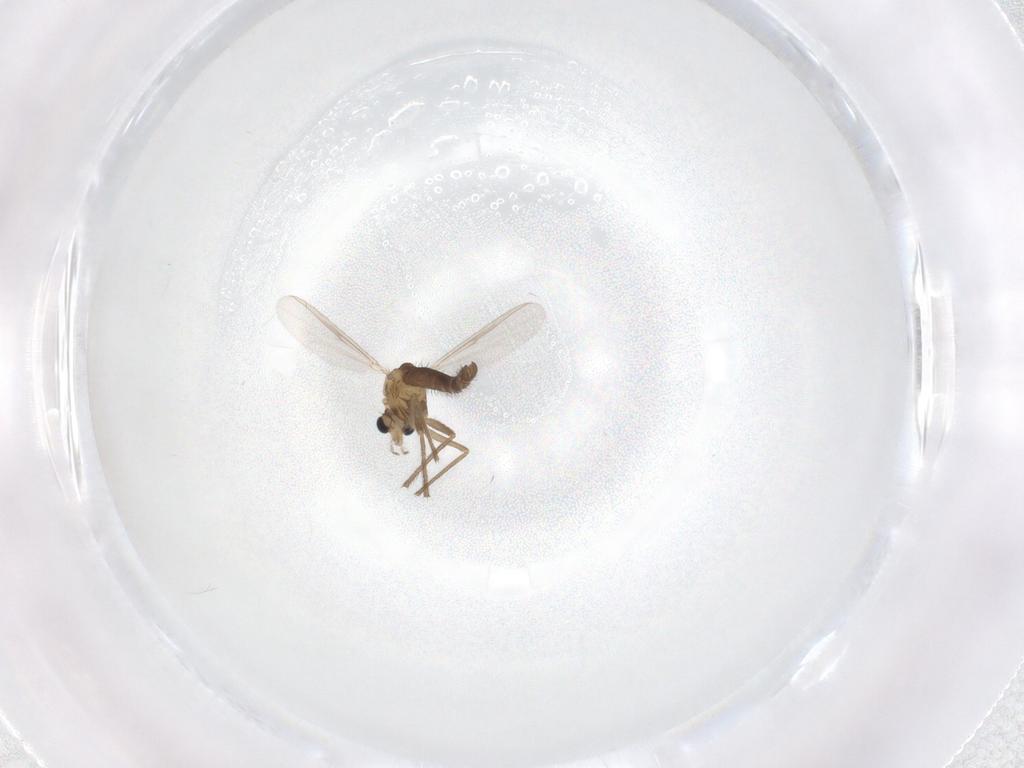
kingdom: Animalia
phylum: Arthropoda
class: Insecta
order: Diptera
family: Chironomidae
